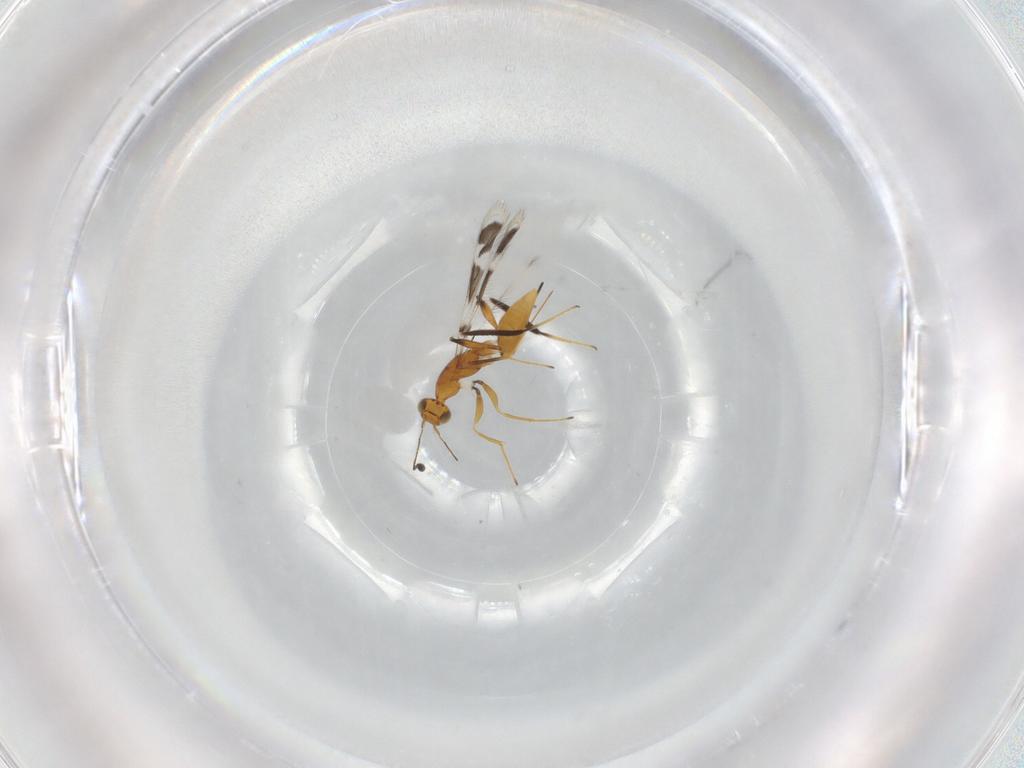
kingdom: Animalia
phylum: Arthropoda
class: Insecta
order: Hymenoptera
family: Mymaridae
